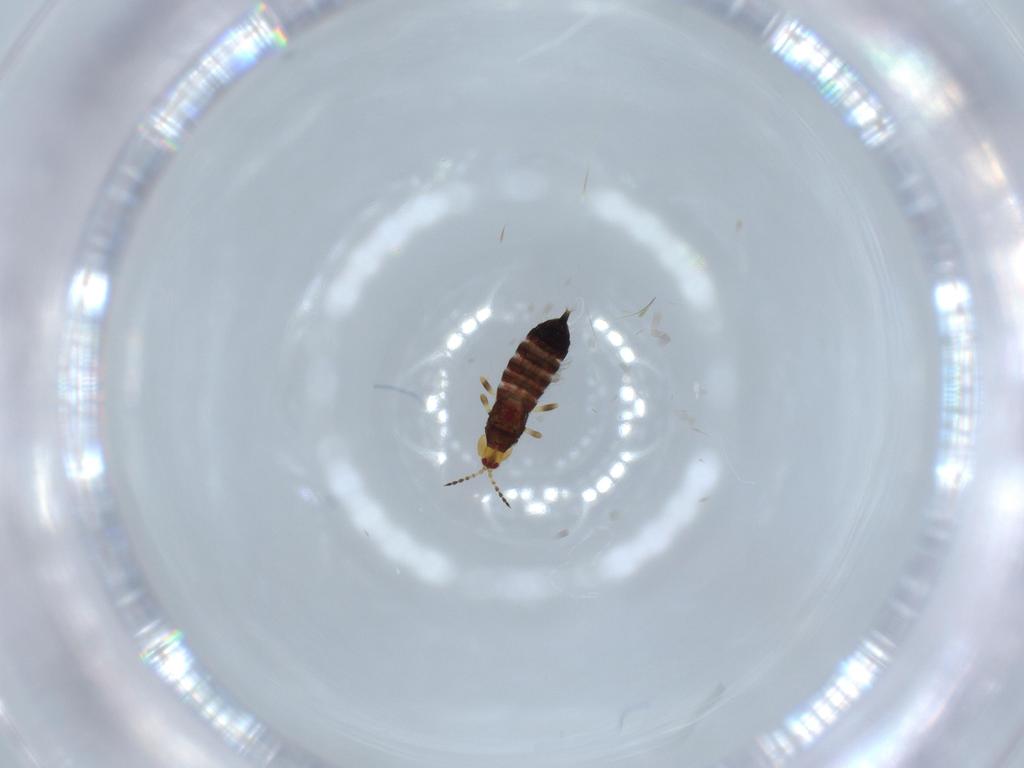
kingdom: Animalia
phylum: Arthropoda
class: Insecta
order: Thysanoptera
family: Phlaeothripidae
